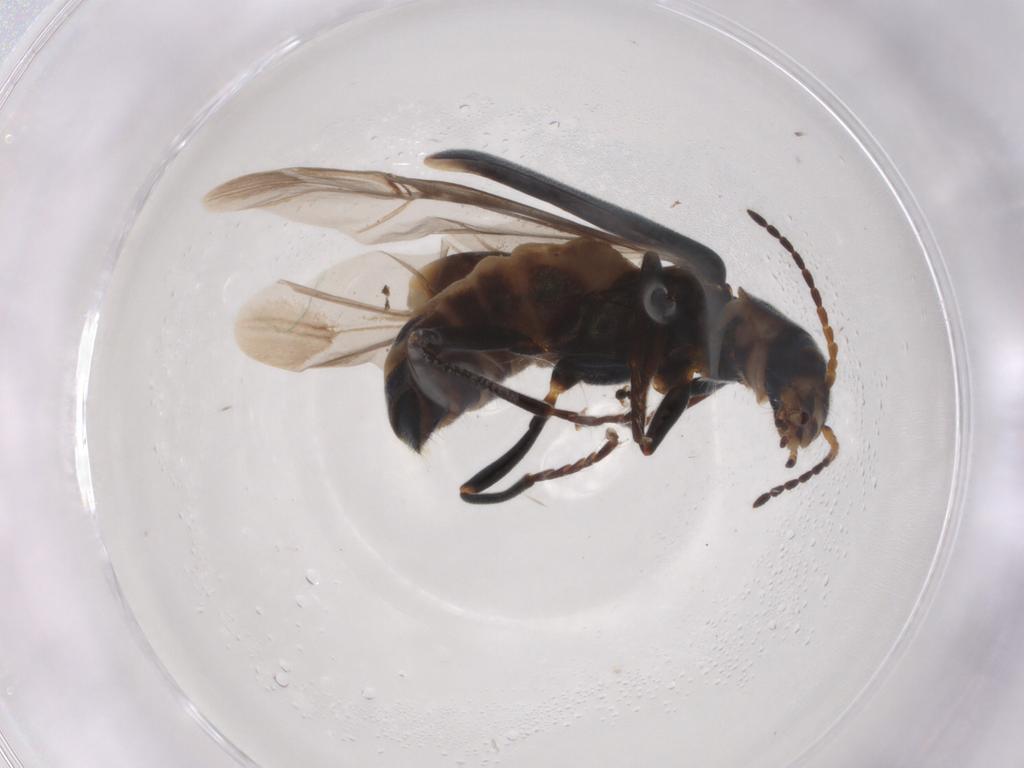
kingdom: Animalia
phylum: Arthropoda
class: Insecta
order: Coleoptera
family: Melyridae
